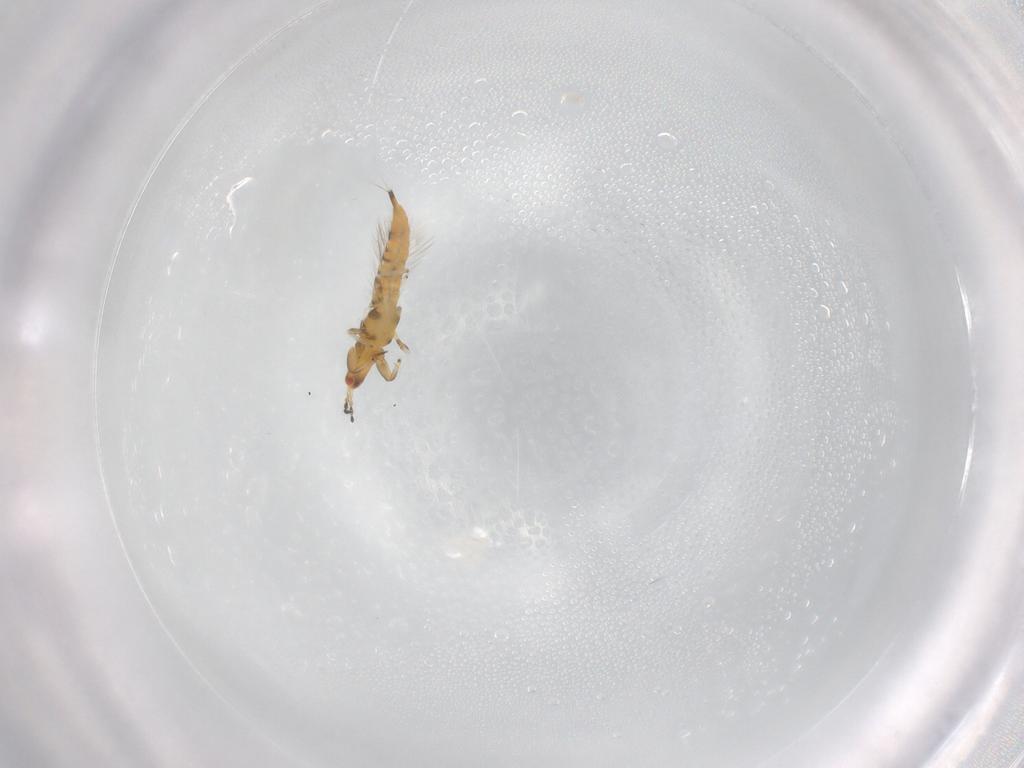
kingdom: Animalia
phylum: Arthropoda
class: Insecta
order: Thysanoptera
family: Phlaeothripidae
